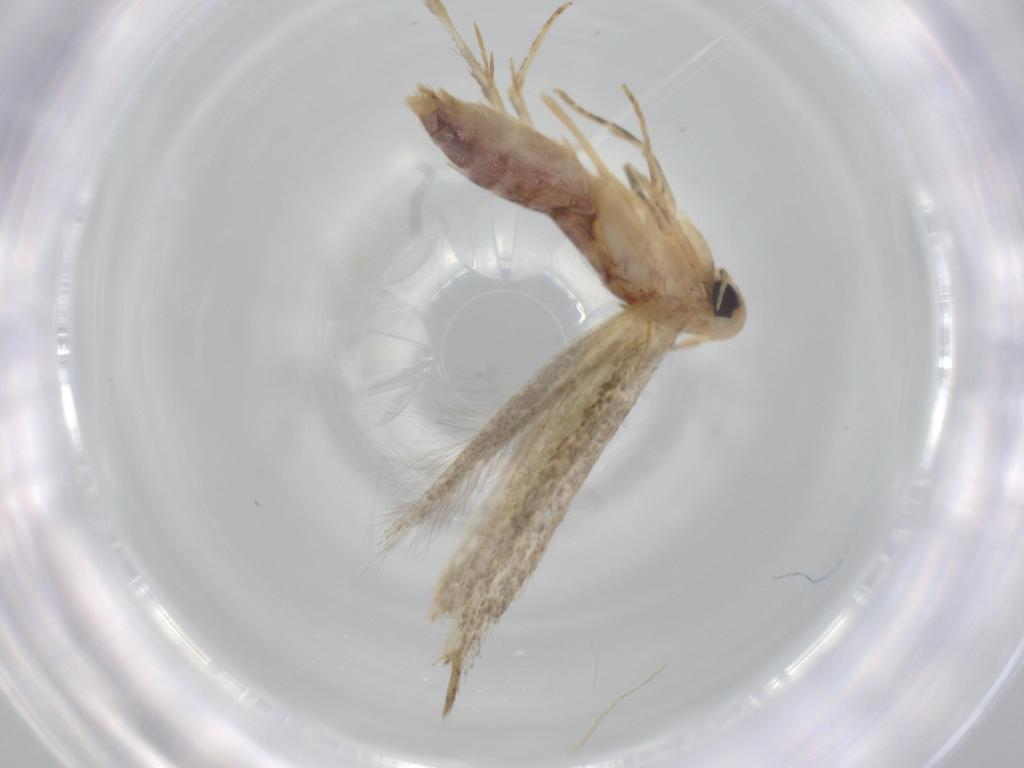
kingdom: Animalia
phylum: Arthropoda
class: Insecta
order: Lepidoptera
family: Elachistidae
